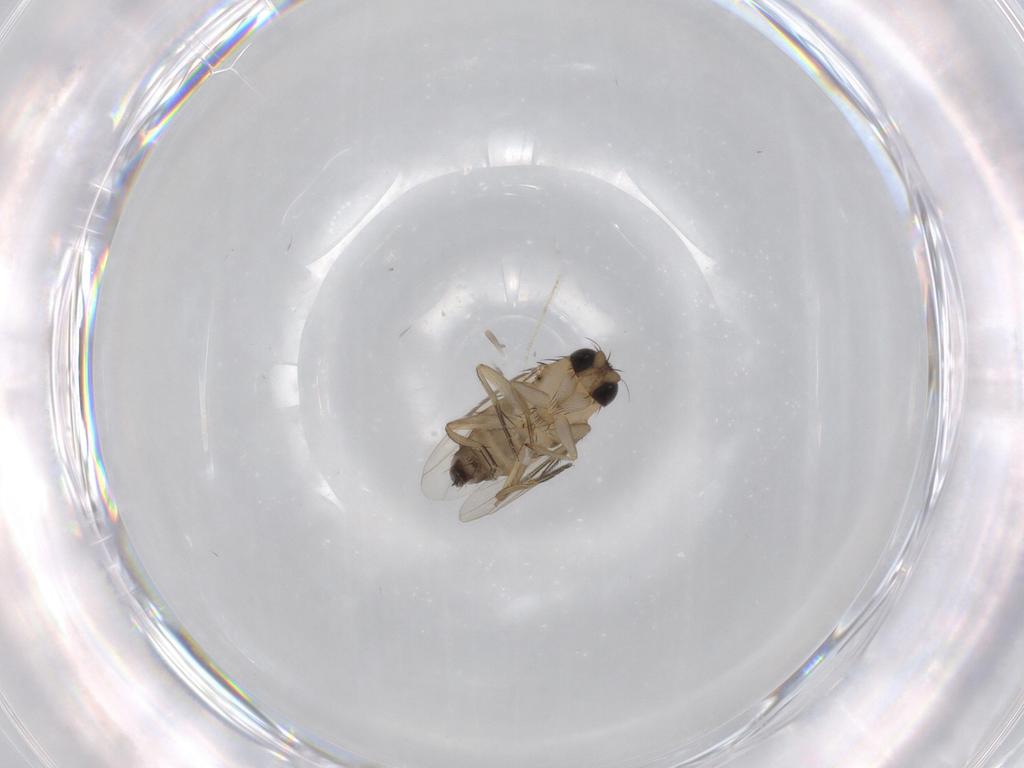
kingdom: Animalia
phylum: Arthropoda
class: Insecta
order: Diptera
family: Phoridae
